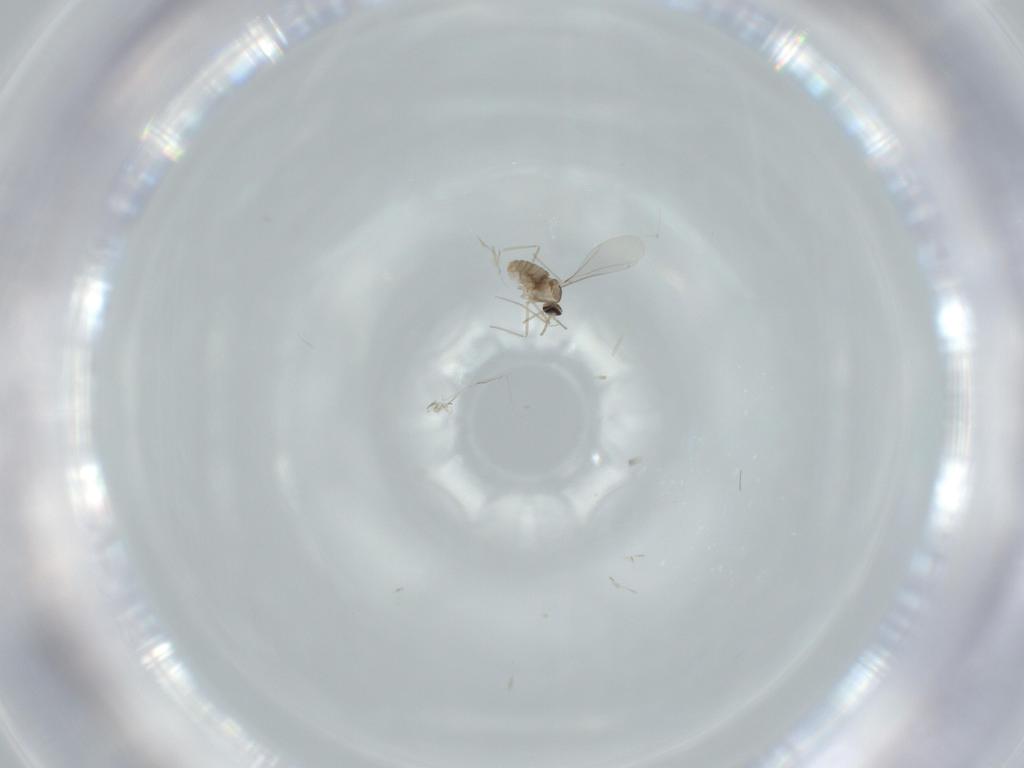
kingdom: Animalia
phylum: Arthropoda
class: Insecta
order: Diptera
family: Cecidomyiidae
